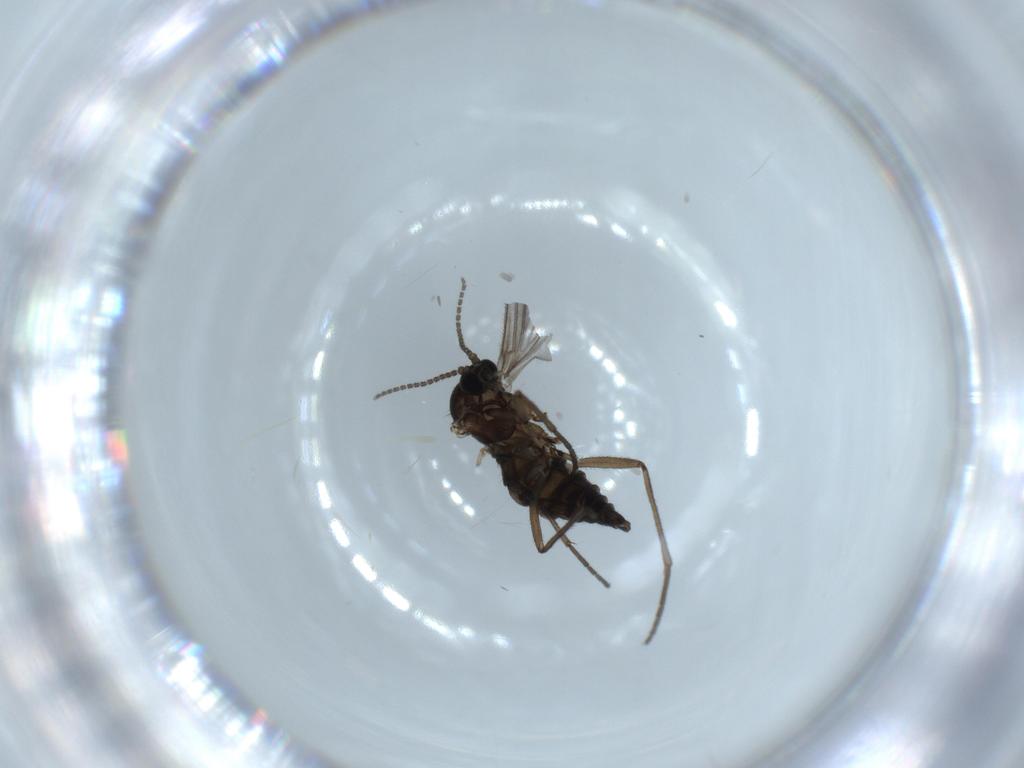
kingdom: Animalia
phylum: Arthropoda
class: Insecta
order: Diptera
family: Sciaridae
